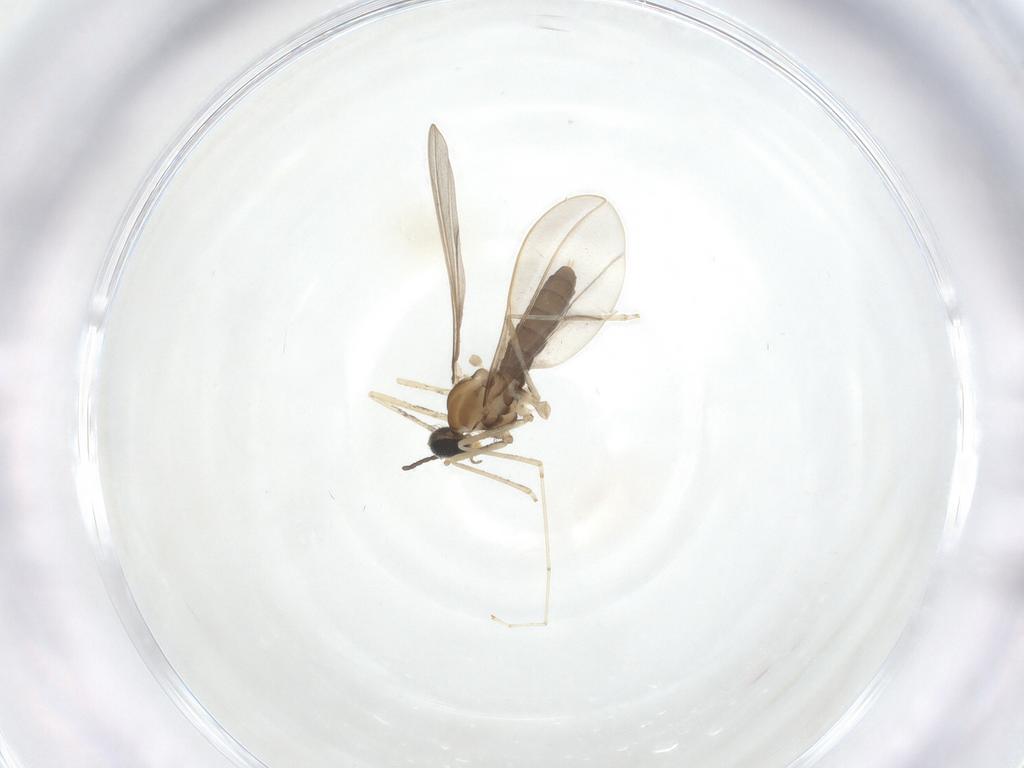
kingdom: Animalia
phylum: Arthropoda
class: Insecta
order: Diptera
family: Cecidomyiidae
